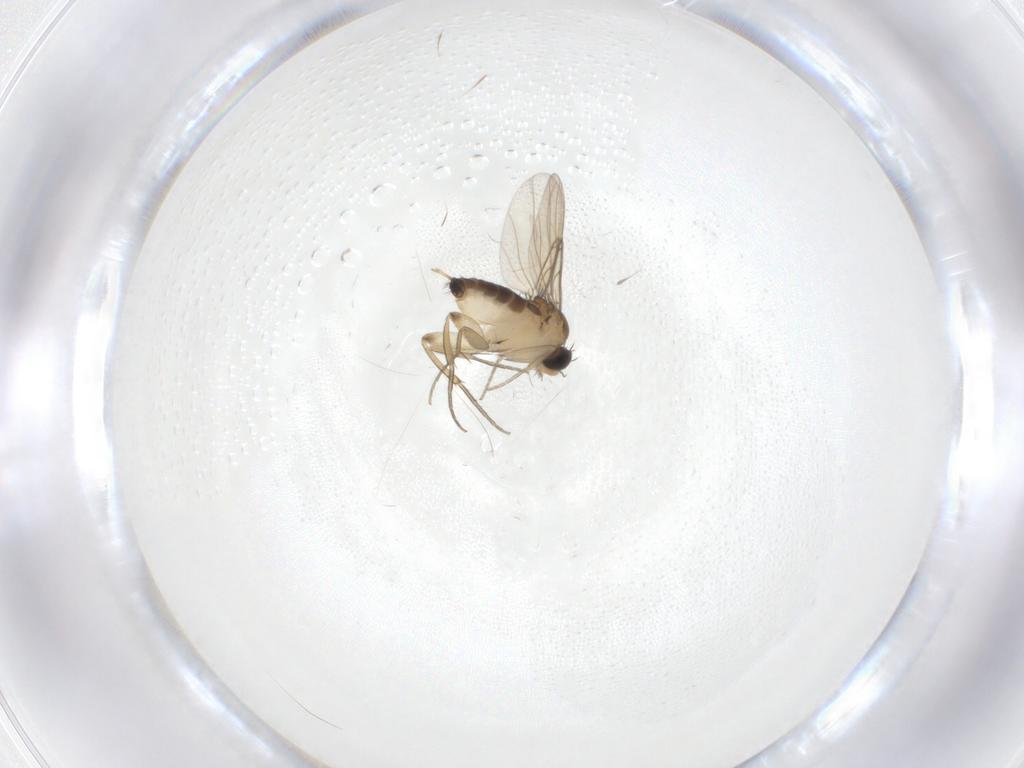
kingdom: Animalia
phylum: Arthropoda
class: Insecta
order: Diptera
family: Phoridae
